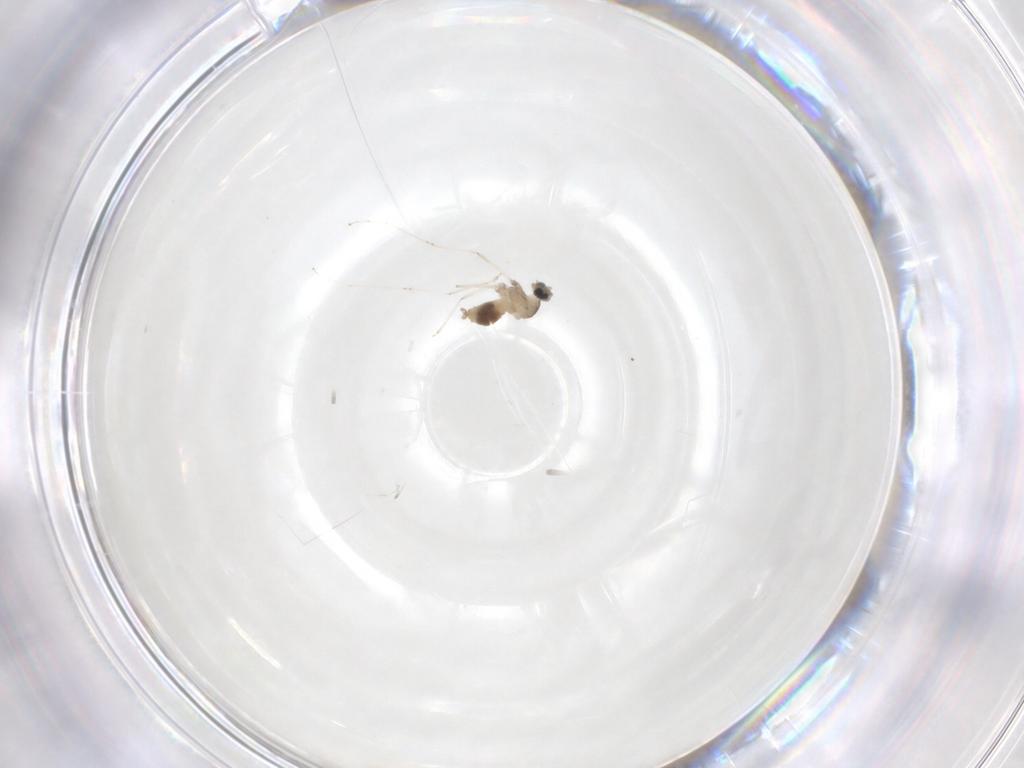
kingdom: Animalia
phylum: Arthropoda
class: Insecta
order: Diptera
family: Cecidomyiidae
